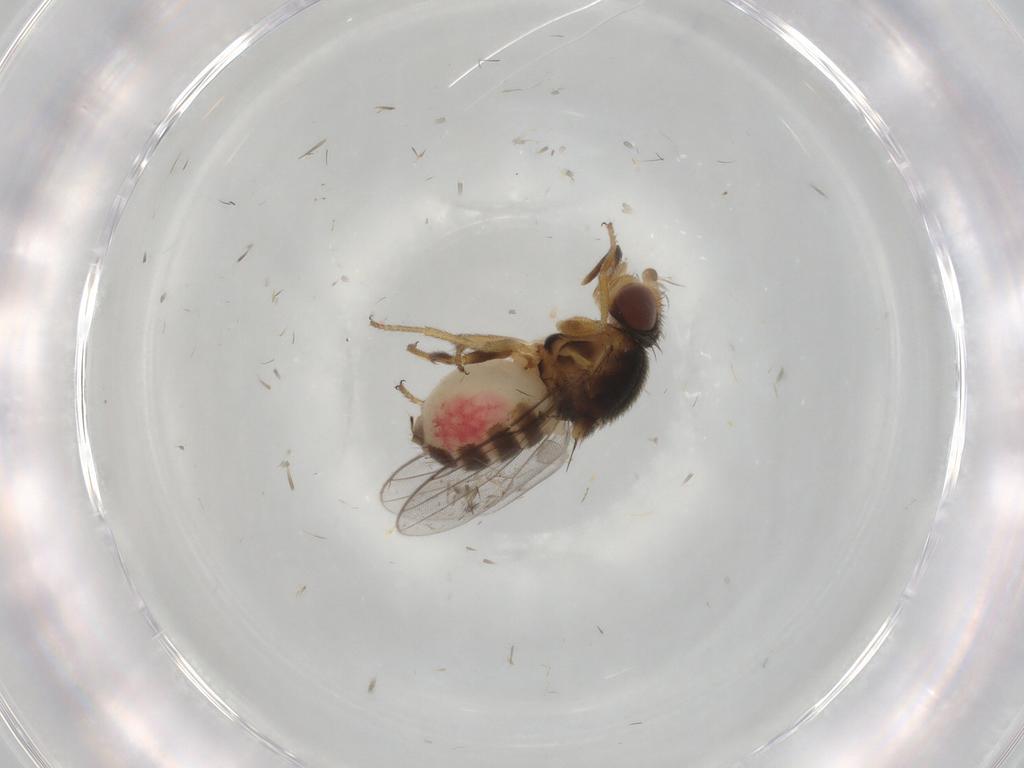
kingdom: Animalia
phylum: Arthropoda
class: Insecta
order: Diptera
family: Chloropidae
